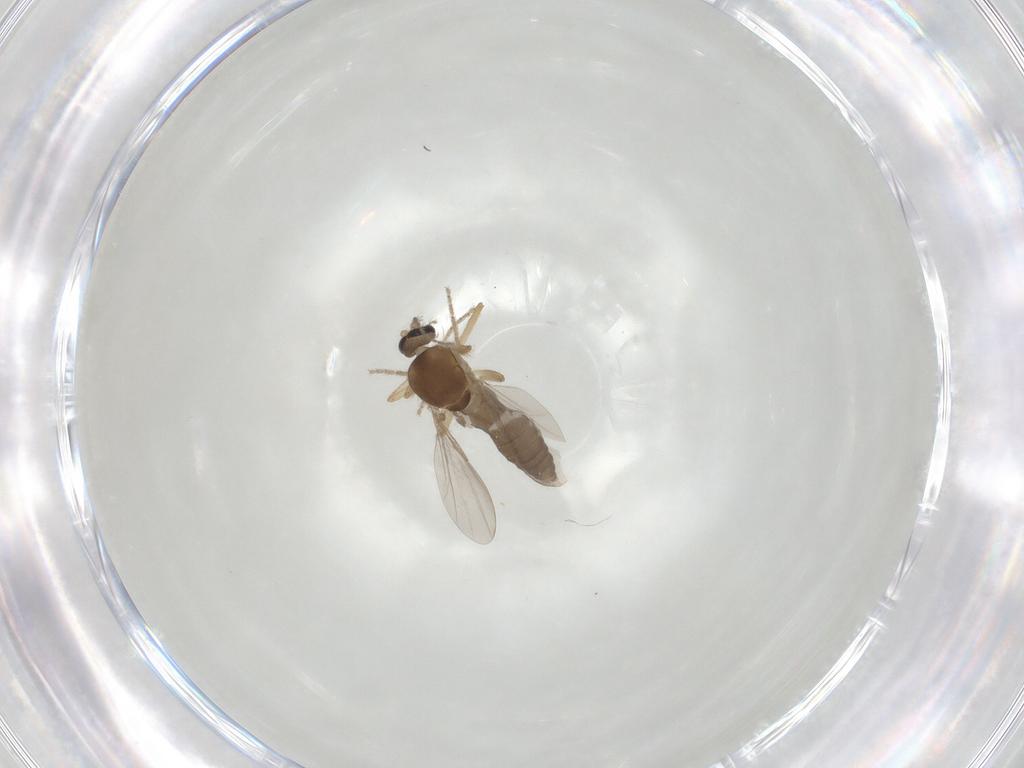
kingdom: Animalia
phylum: Arthropoda
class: Insecta
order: Diptera
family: Ceratopogonidae
